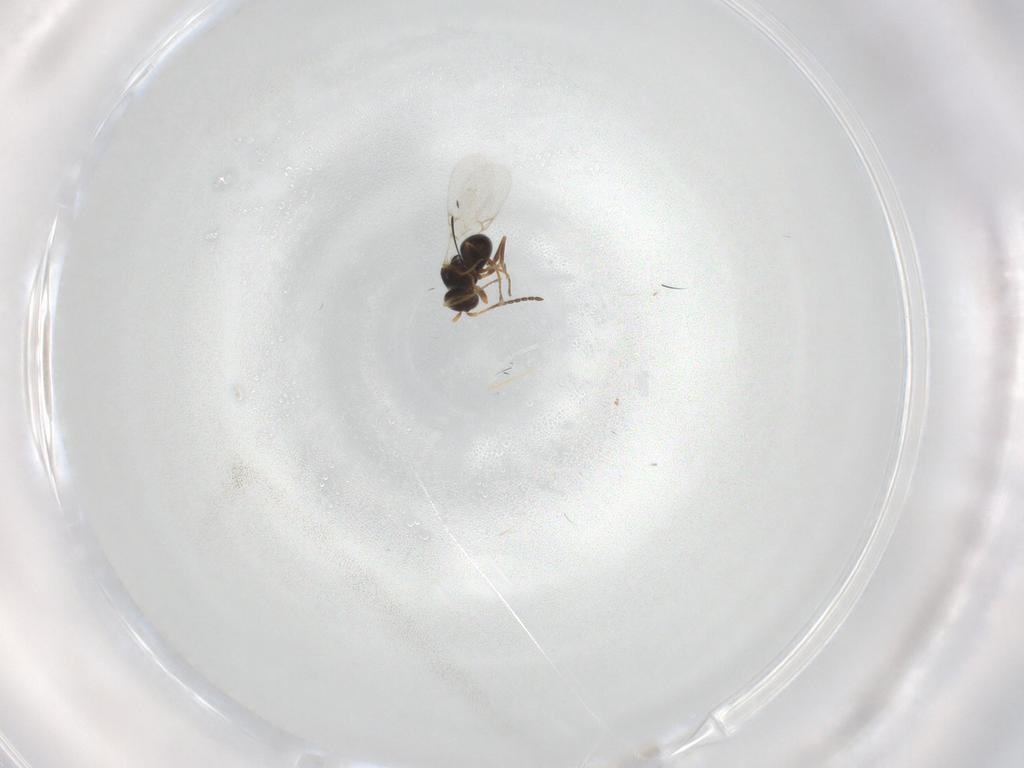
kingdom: Animalia
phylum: Arthropoda
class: Insecta
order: Hymenoptera
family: Figitidae
